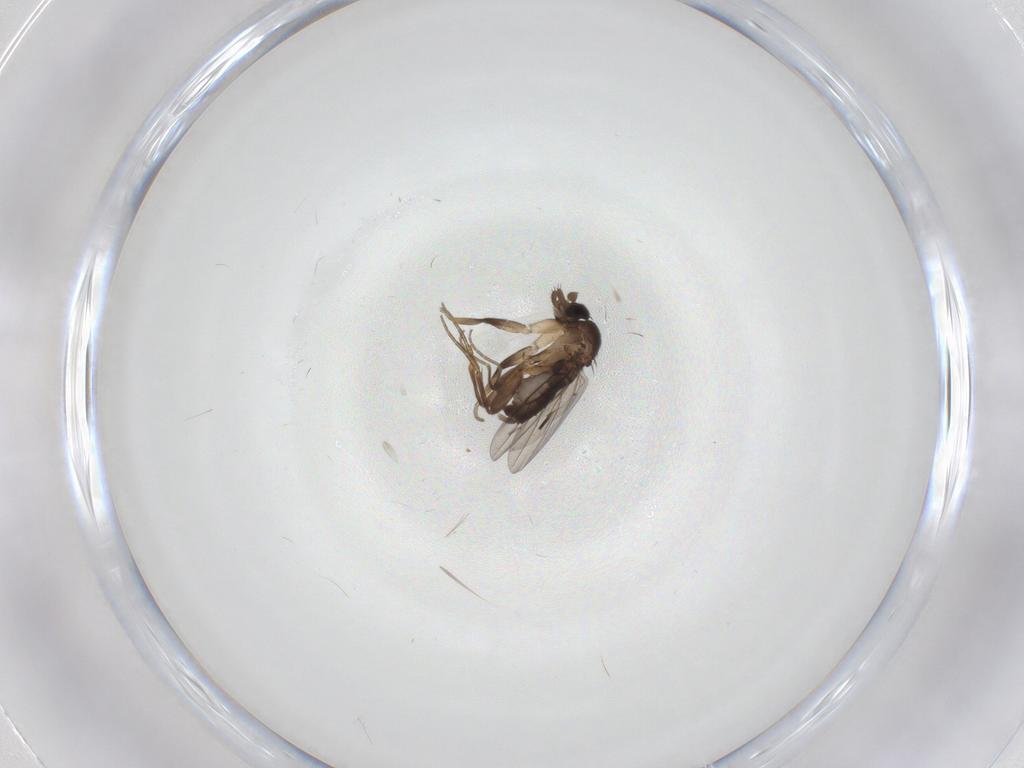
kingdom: Animalia
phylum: Arthropoda
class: Insecta
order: Diptera
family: Phoridae
